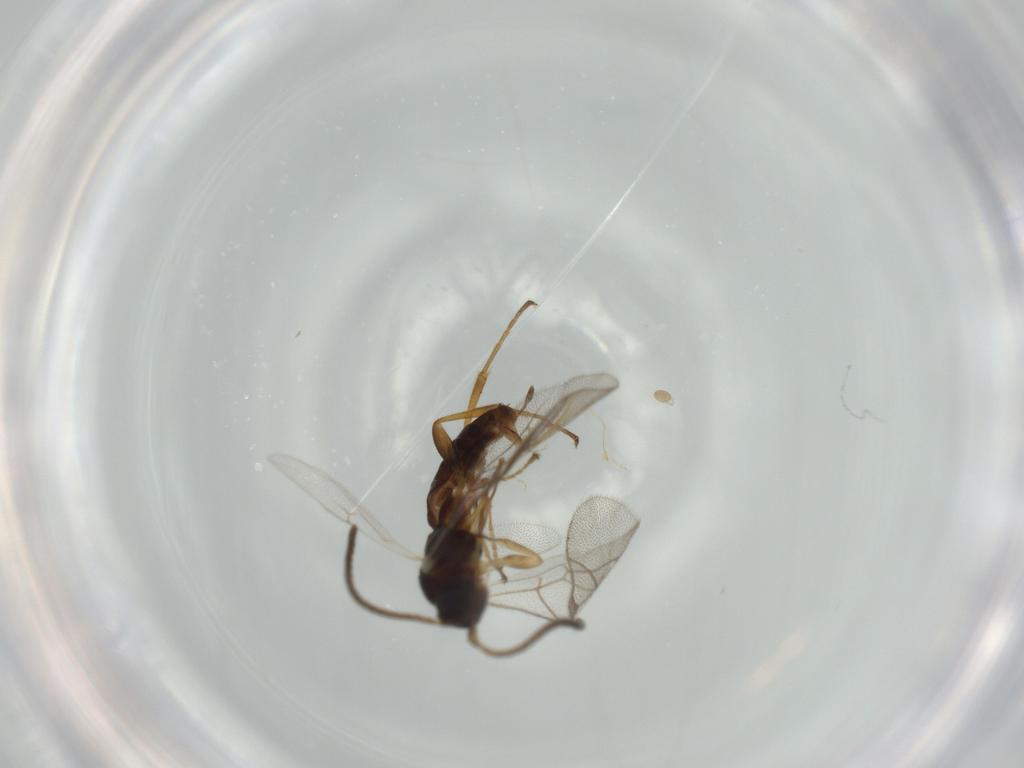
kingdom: Animalia
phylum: Arthropoda
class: Insecta
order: Hymenoptera
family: Ichneumonidae
